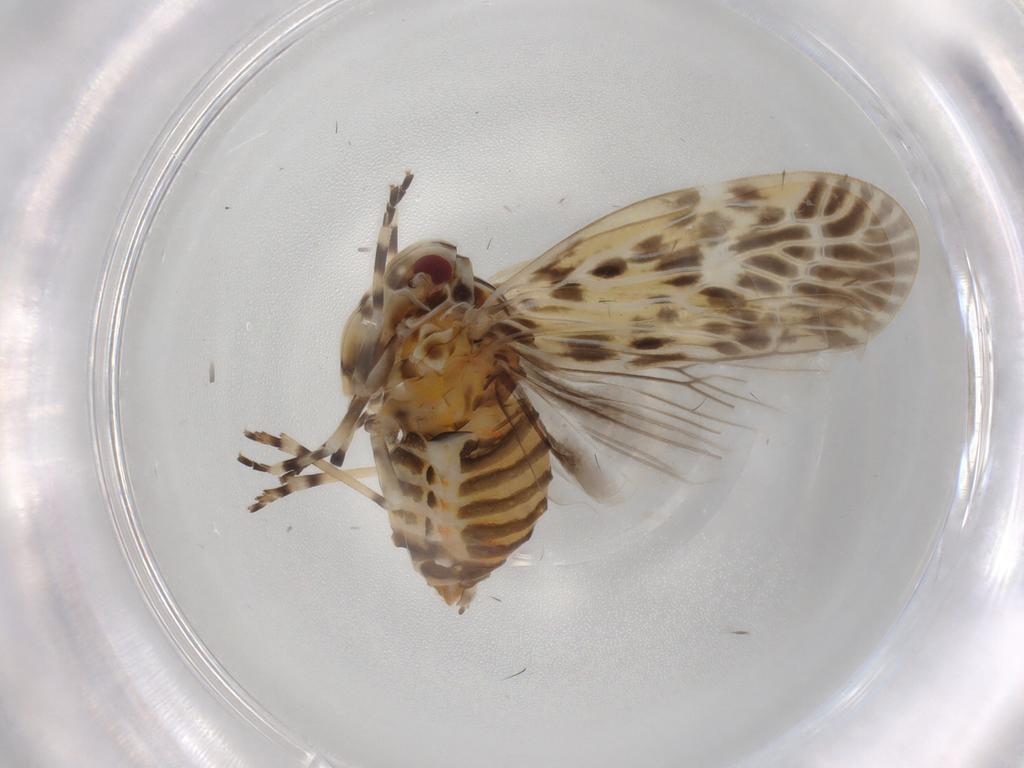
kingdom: Animalia
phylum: Arthropoda
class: Insecta
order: Hemiptera
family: Derbidae
